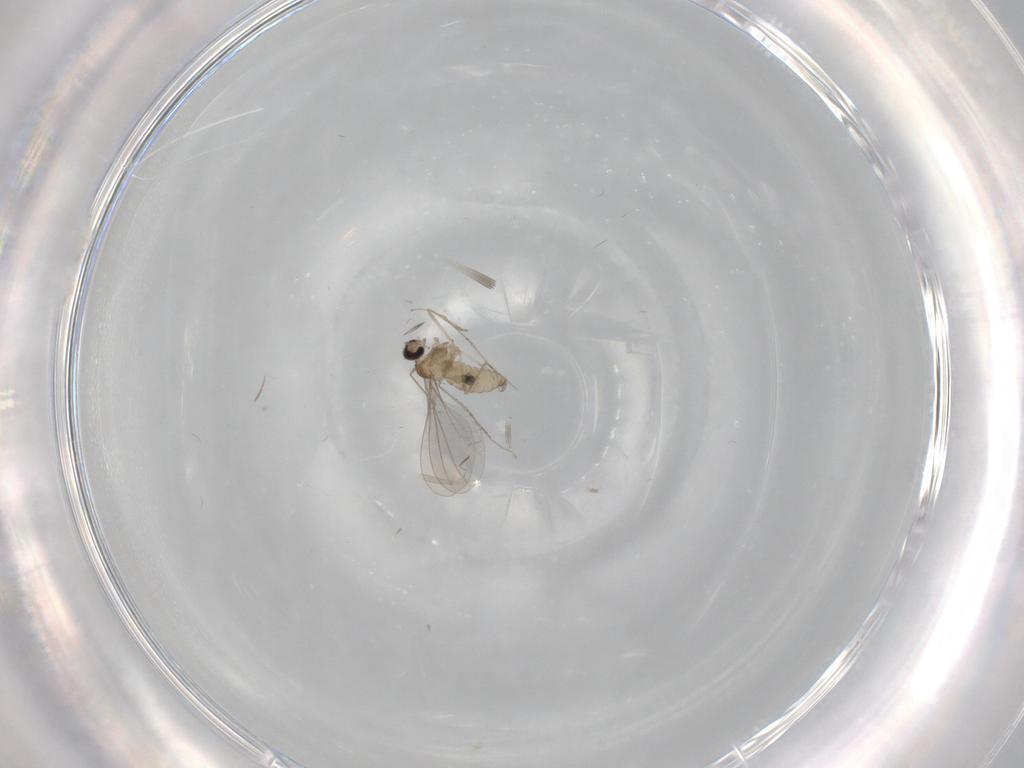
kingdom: Animalia
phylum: Arthropoda
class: Insecta
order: Diptera
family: Cecidomyiidae
